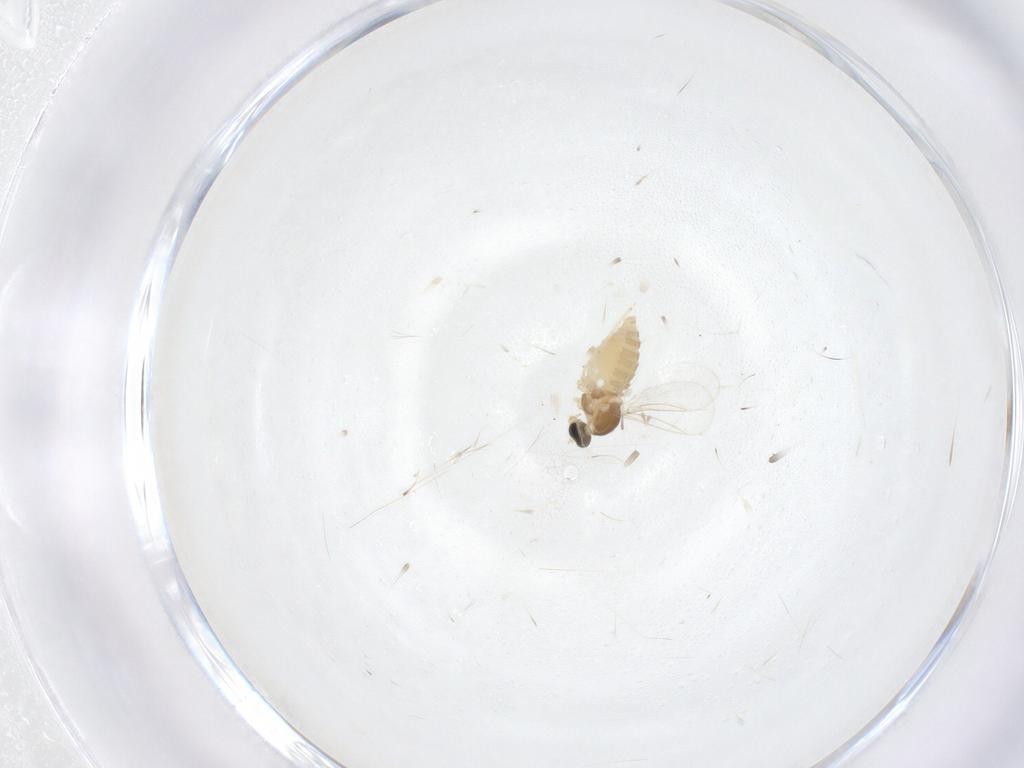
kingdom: Animalia
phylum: Arthropoda
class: Insecta
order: Diptera
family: Cecidomyiidae
